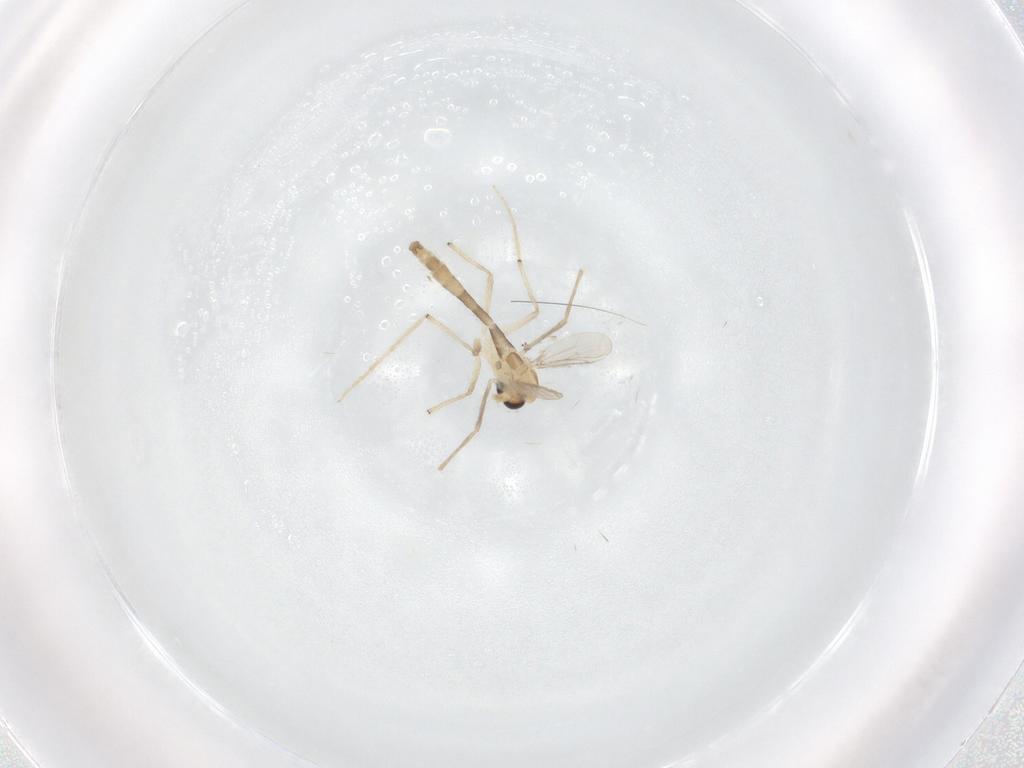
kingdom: Animalia
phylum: Arthropoda
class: Insecta
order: Diptera
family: Chironomidae
